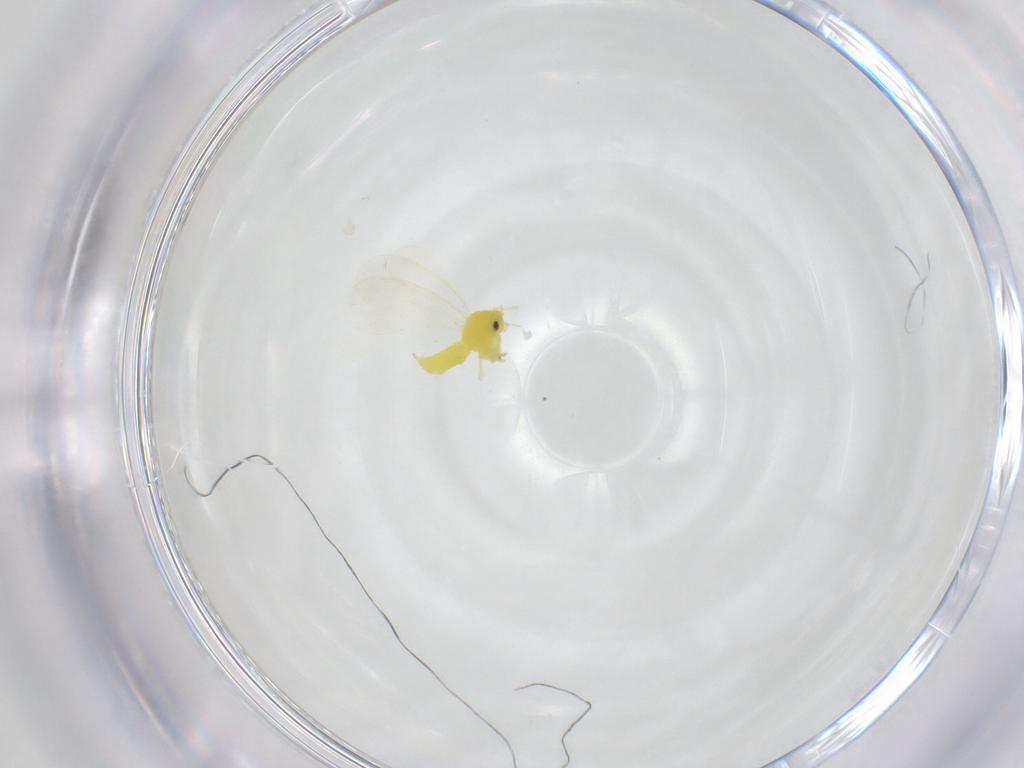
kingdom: Animalia
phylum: Arthropoda
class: Insecta
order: Hemiptera
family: Aleyrodidae
